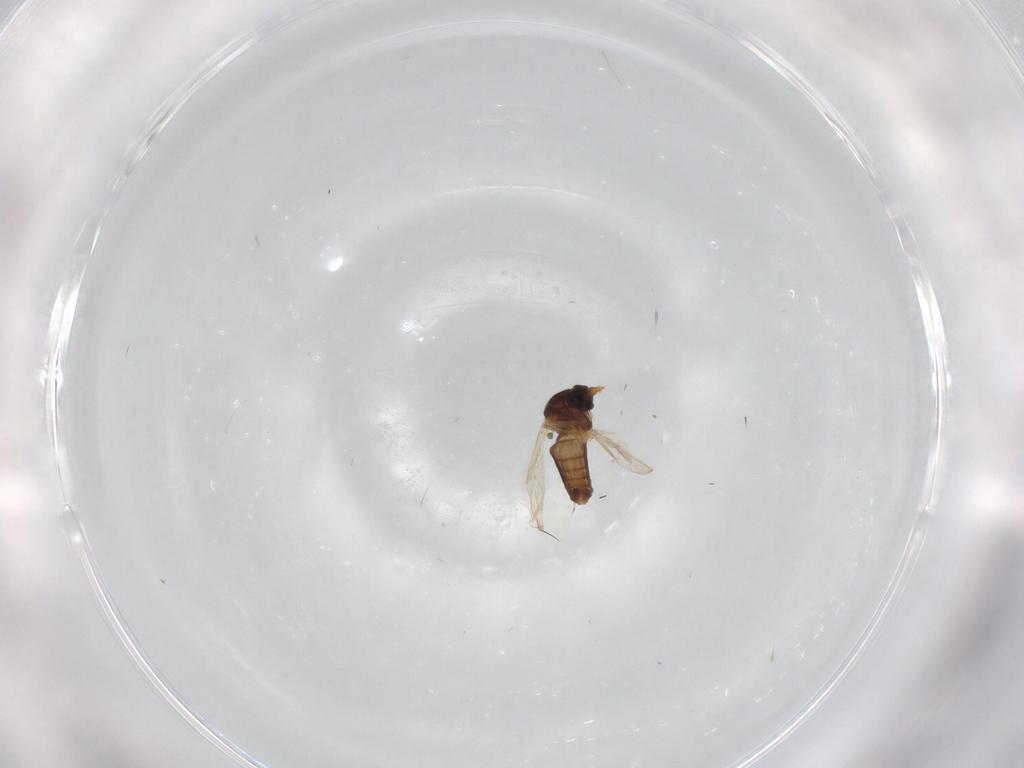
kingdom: Animalia
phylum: Arthropoda
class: Insecta
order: Diptera
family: Ceratopogonidae
